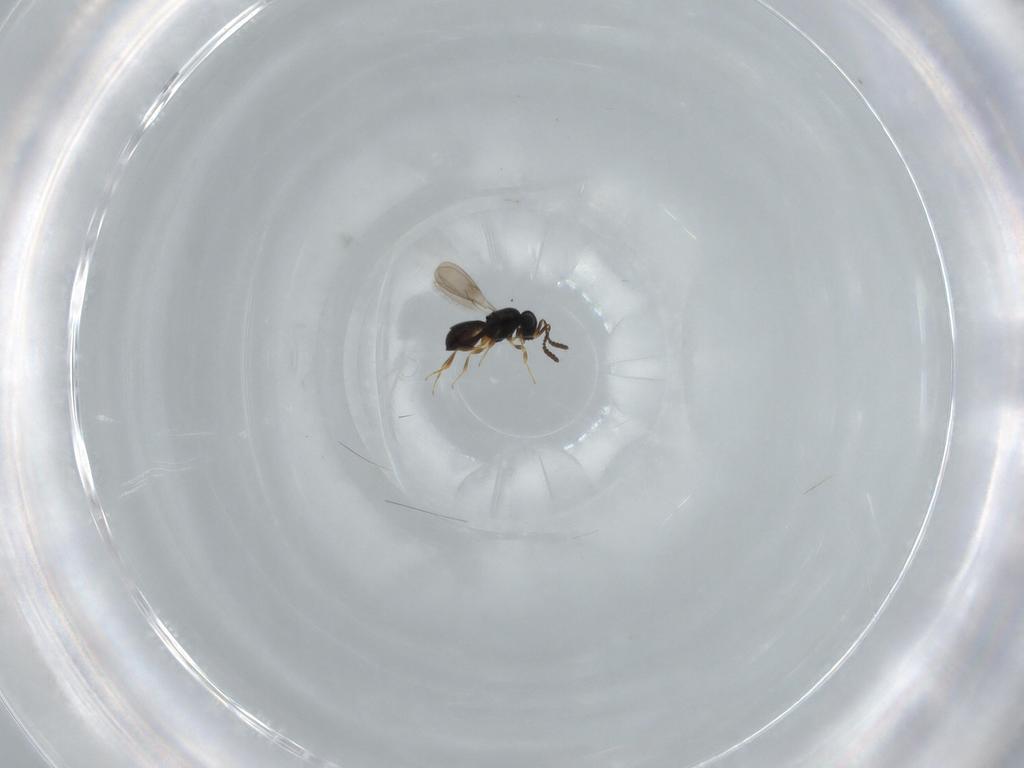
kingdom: Animalia
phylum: Arthropoda
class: Insecta
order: Hymenoptera
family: Scelionidae
